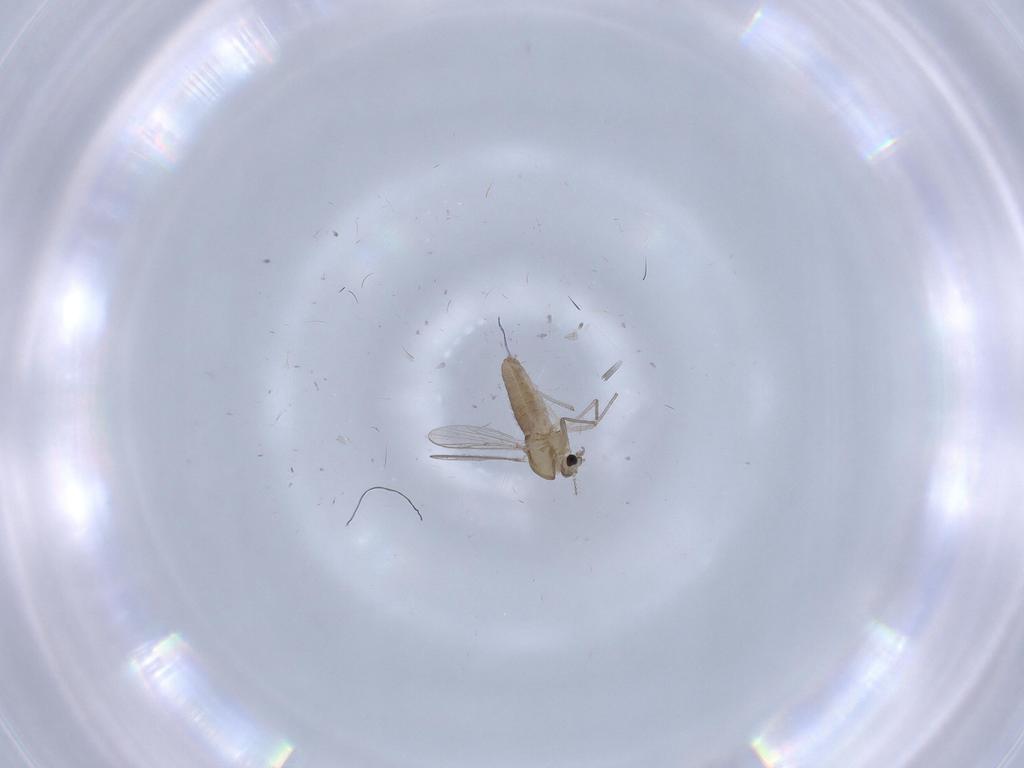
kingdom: Animalia
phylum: Arthropoda
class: Insecta
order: Diptera
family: Chironomidae
